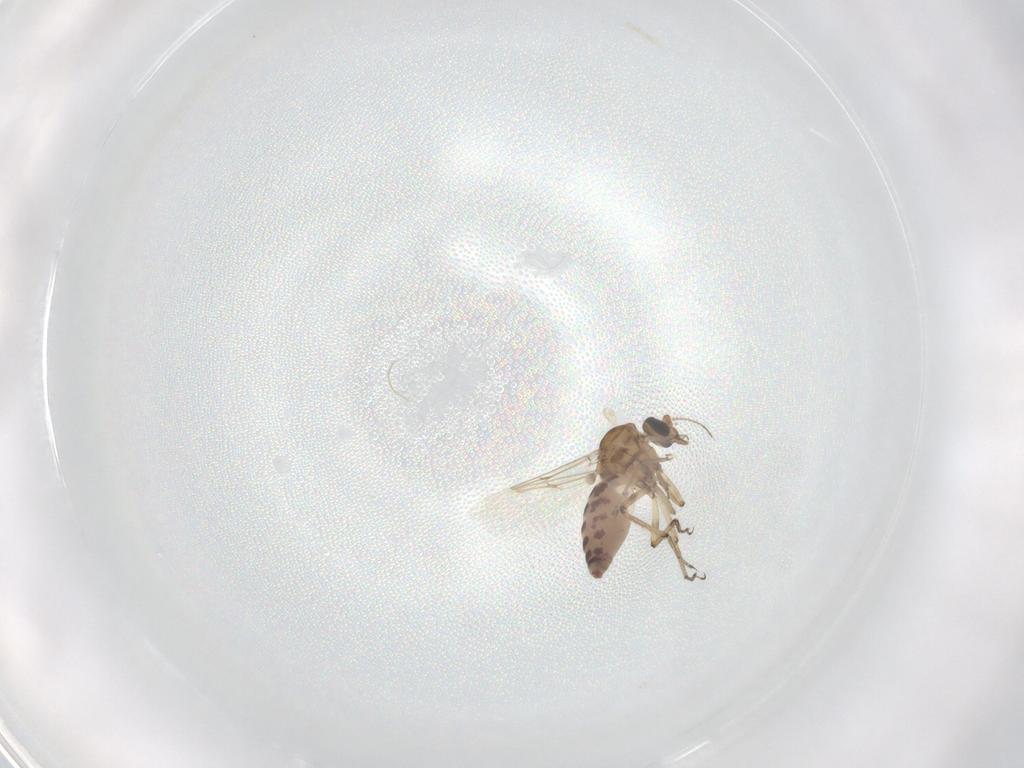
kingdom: Animalia
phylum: Arthropoda
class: Insecta
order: Diptera
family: Ceratopogonidae
